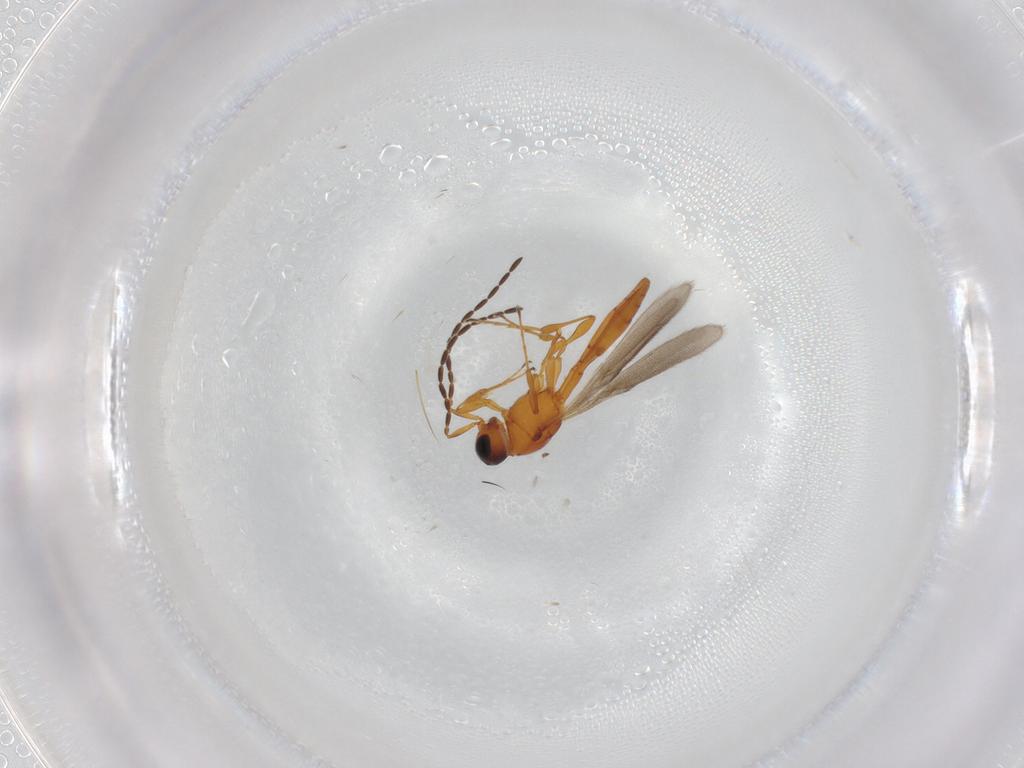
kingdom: Animalia
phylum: Arthropoda
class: Insecta
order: Hymenoptera
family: Scelionidae
